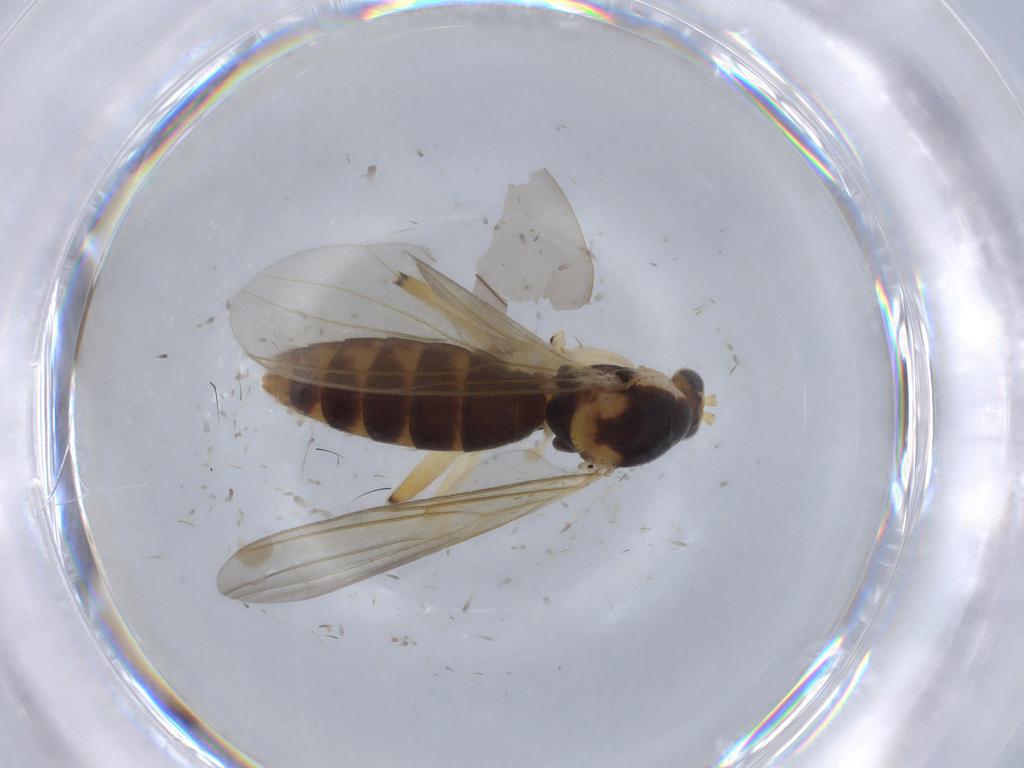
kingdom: Animalia
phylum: Arthropoda
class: Insecta
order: Diptera
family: Mycetophilidae
